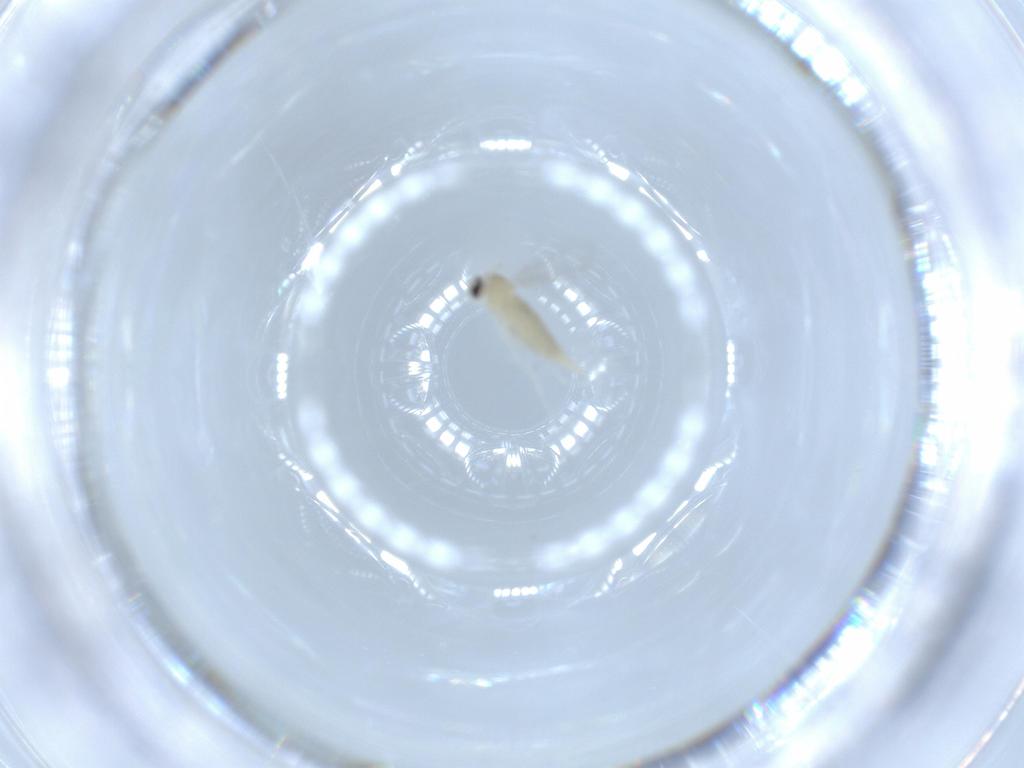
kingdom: Animalia
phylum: Arthropoda
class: Insecta
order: Diptera
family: Cecidomyiidae
